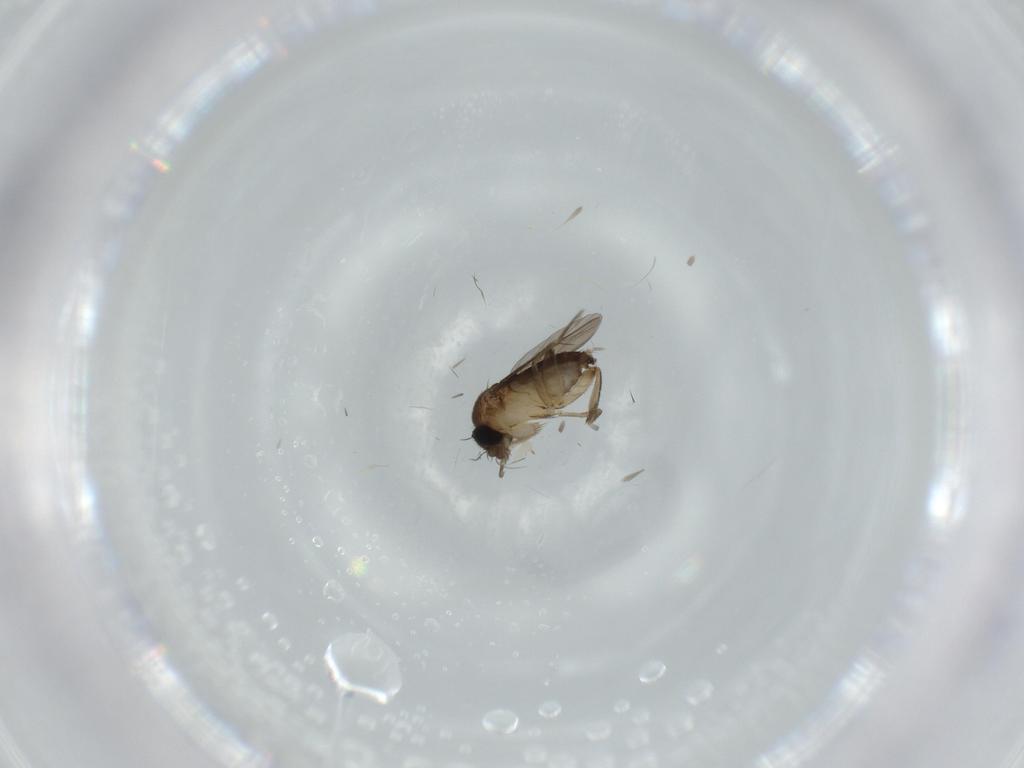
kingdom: Animalia
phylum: Arthropoda
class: Insecta
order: Diptera
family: Phoridae
